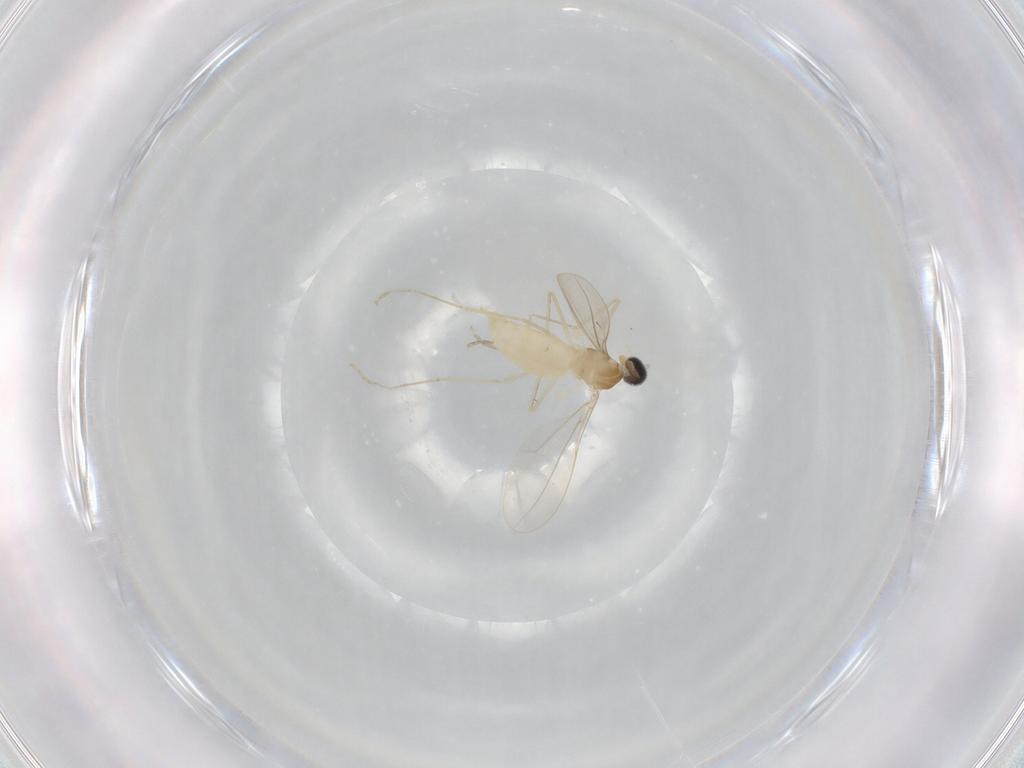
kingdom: Animalia
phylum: Arthropoda
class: Insecta
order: Diptera
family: Cecidomyiidae
